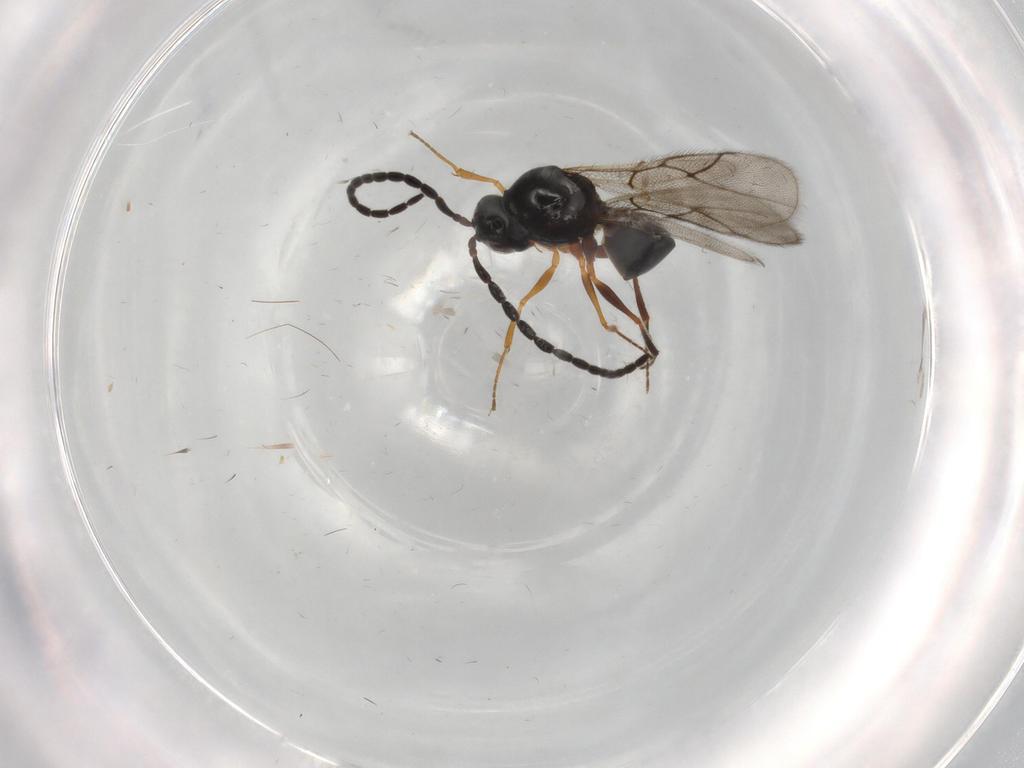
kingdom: Animalia
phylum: Arthropoda
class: Insecta
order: Hymenoptera
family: Figitidae
